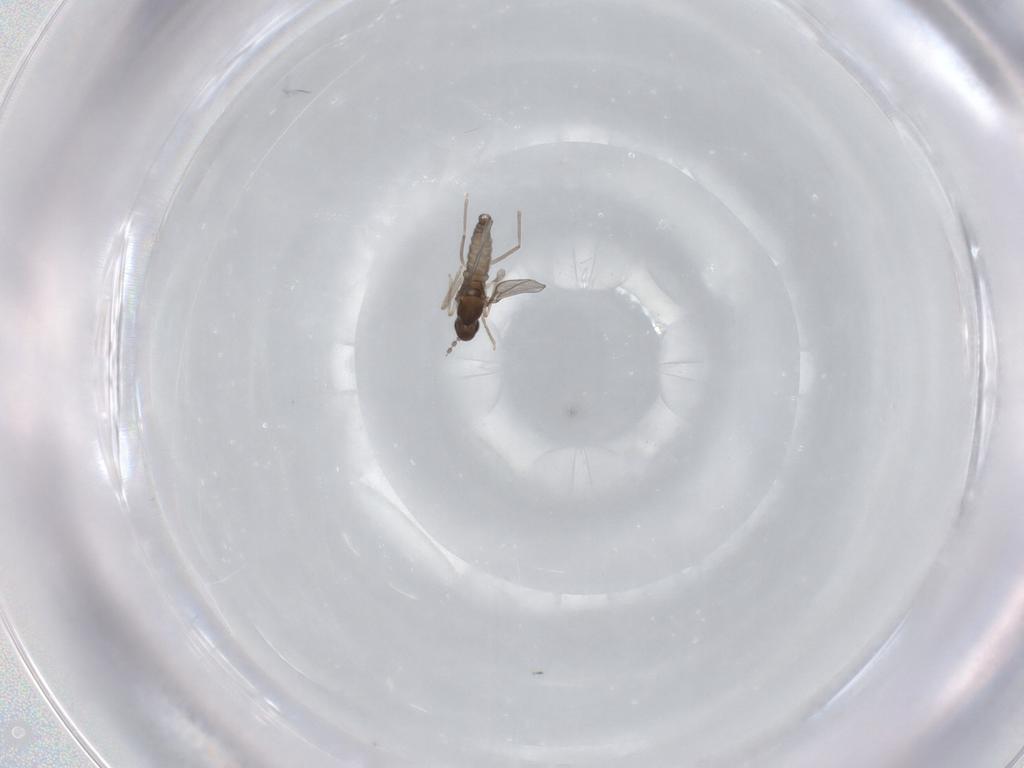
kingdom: Animalia
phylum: Arthropoda
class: Insecta
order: Diptera
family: Cecidomyiidae
